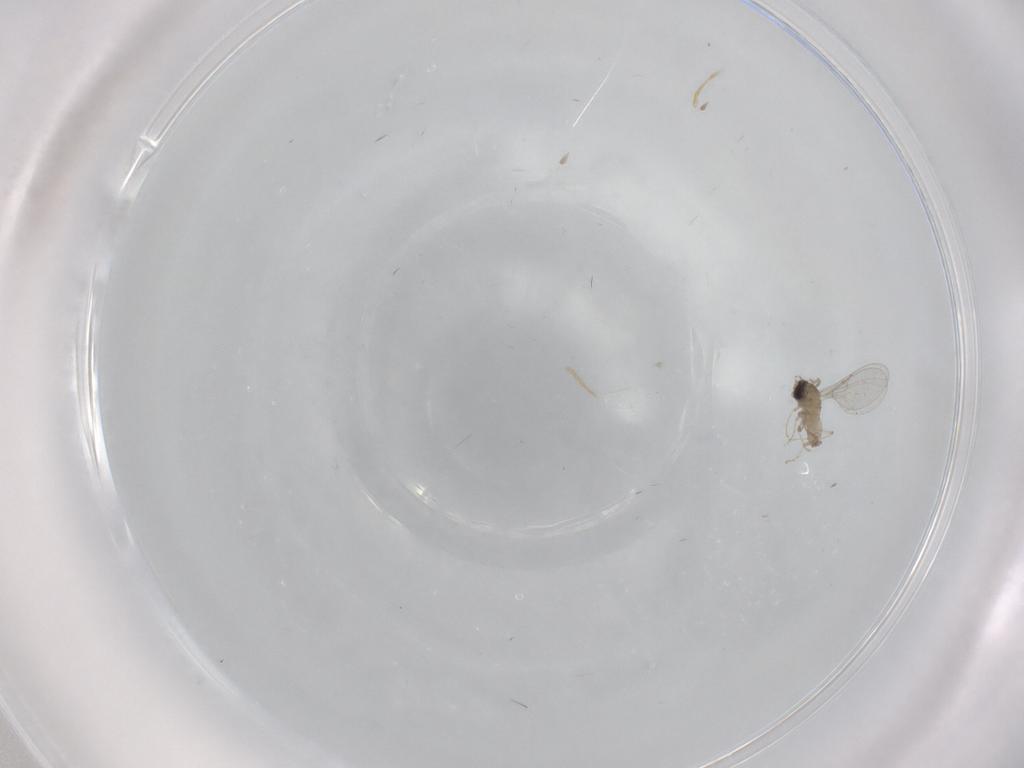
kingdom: Animalia
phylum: Arthropoda
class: Insecta
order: Diptera
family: Cecidomyiidae
